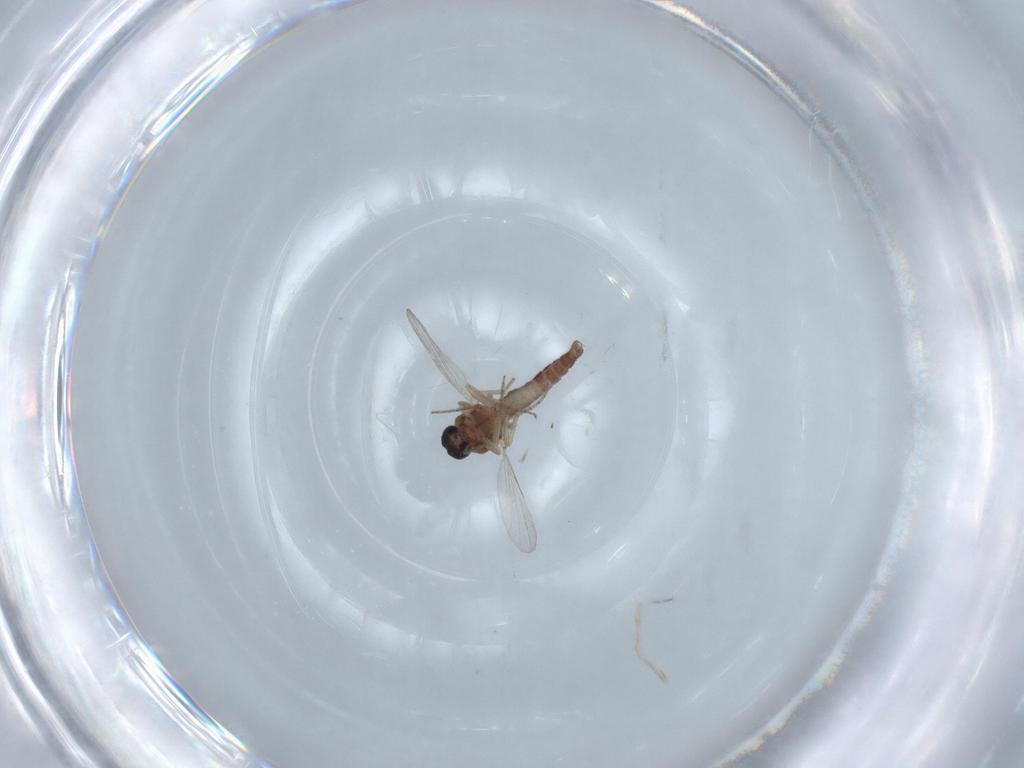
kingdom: Animalia
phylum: Arthropoda
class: Insecta
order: Diptera
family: Ceratopogonidae
